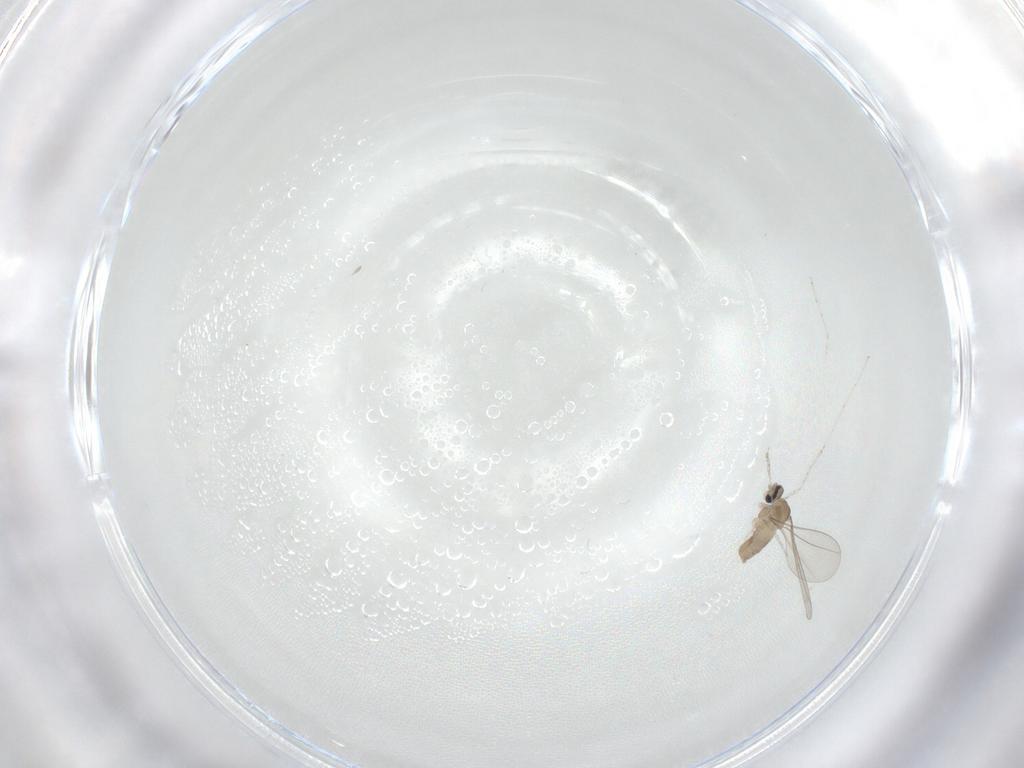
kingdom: Animalia
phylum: Arthropoda
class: Insecta
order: Diptera
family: Cecidomyiidae
